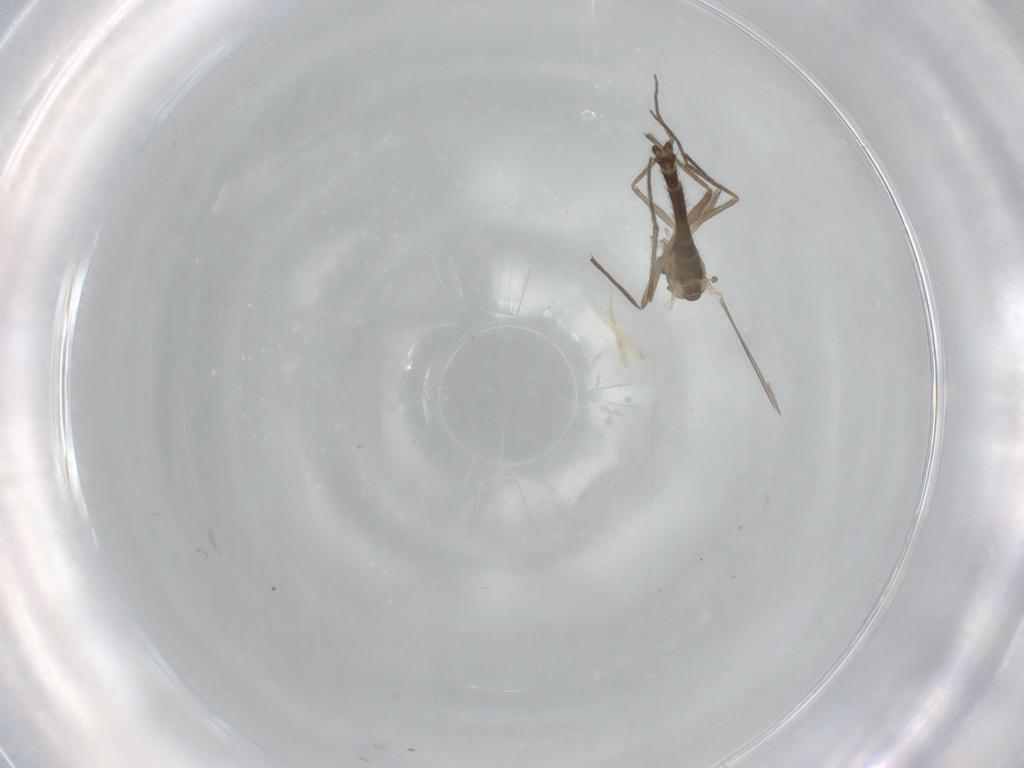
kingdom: Animalia
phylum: Arthropoda
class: Insecta
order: Diptera
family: Chironomidae
